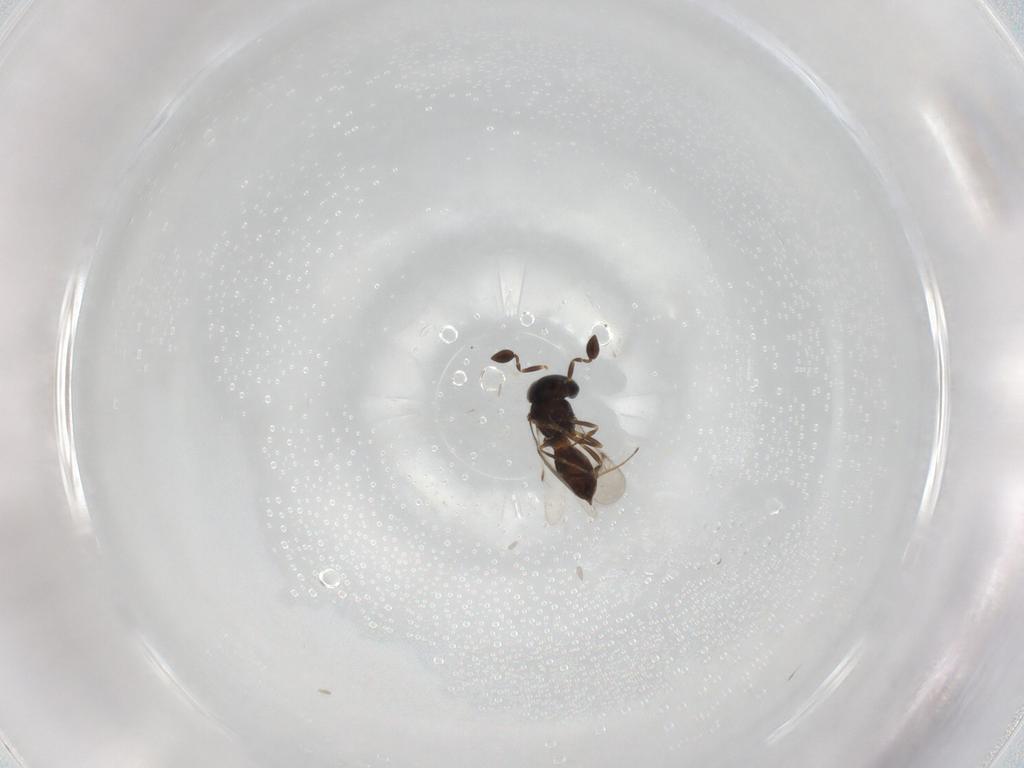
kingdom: Animalia
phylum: Arthropoda
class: Insecta
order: Hymenoptera
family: Scelionidae
